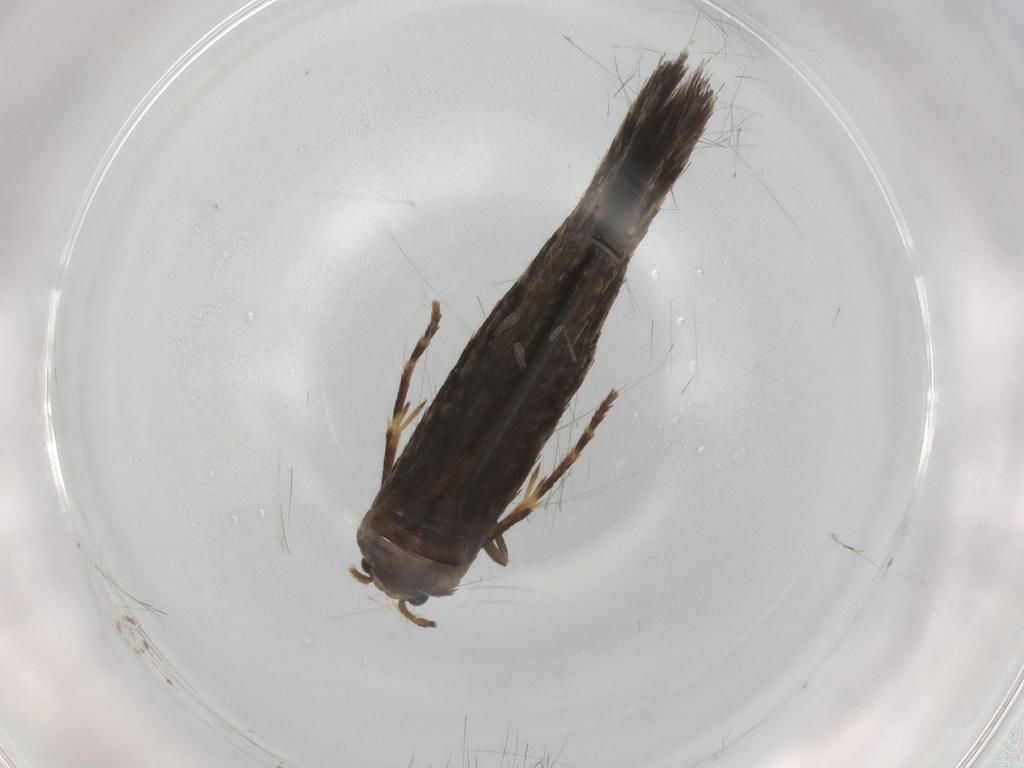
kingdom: Animalia
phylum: Arthropoda
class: Insecta
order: Lepidoptera
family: Nepticulidae
